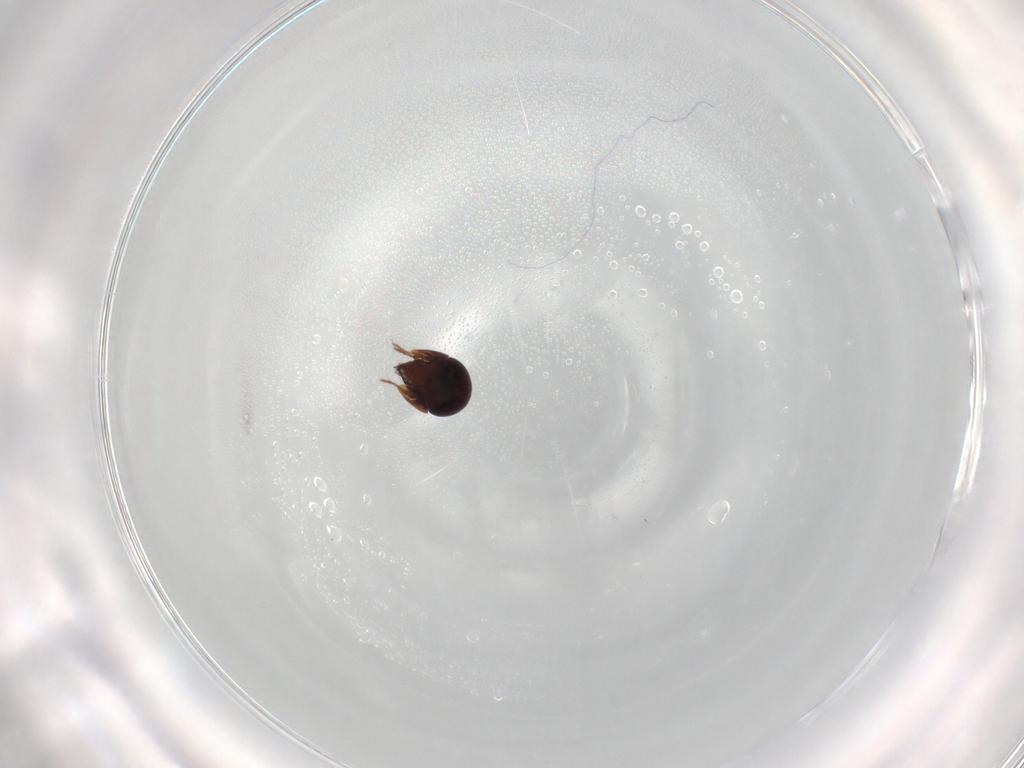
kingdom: Animalia
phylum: Arthropoda
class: Arachnida
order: Sarcoptiformes
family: Galumnidae
